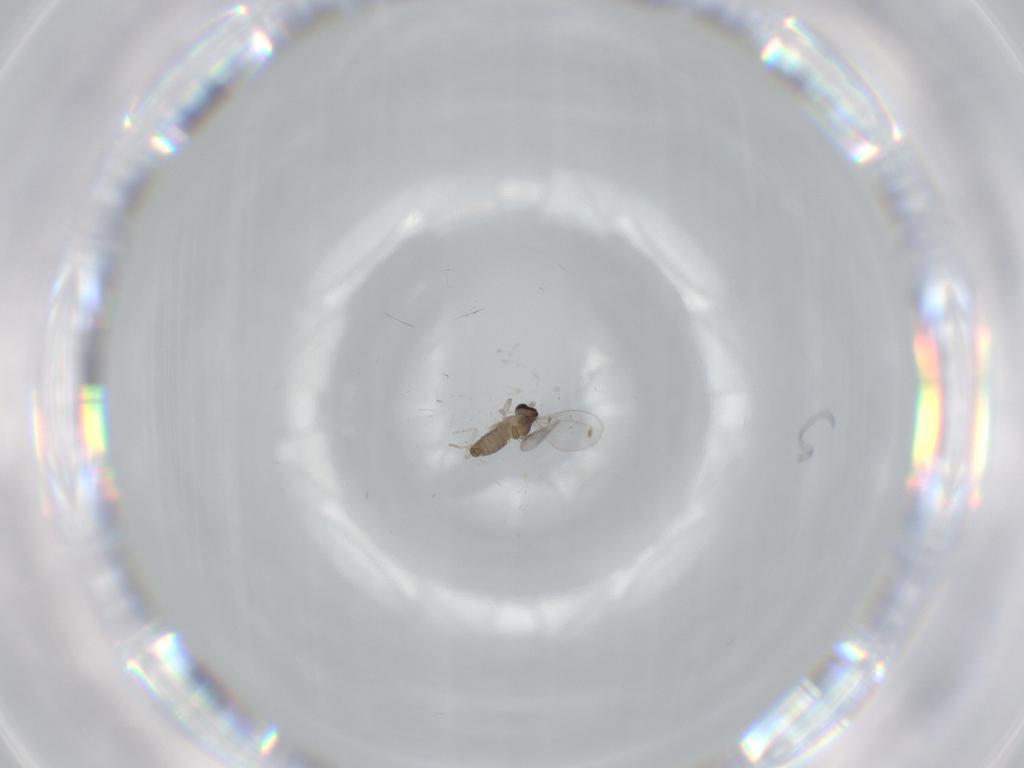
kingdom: Animalia
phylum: Arthropoda
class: Insecta
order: Diptera
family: Cecidomyiidae
